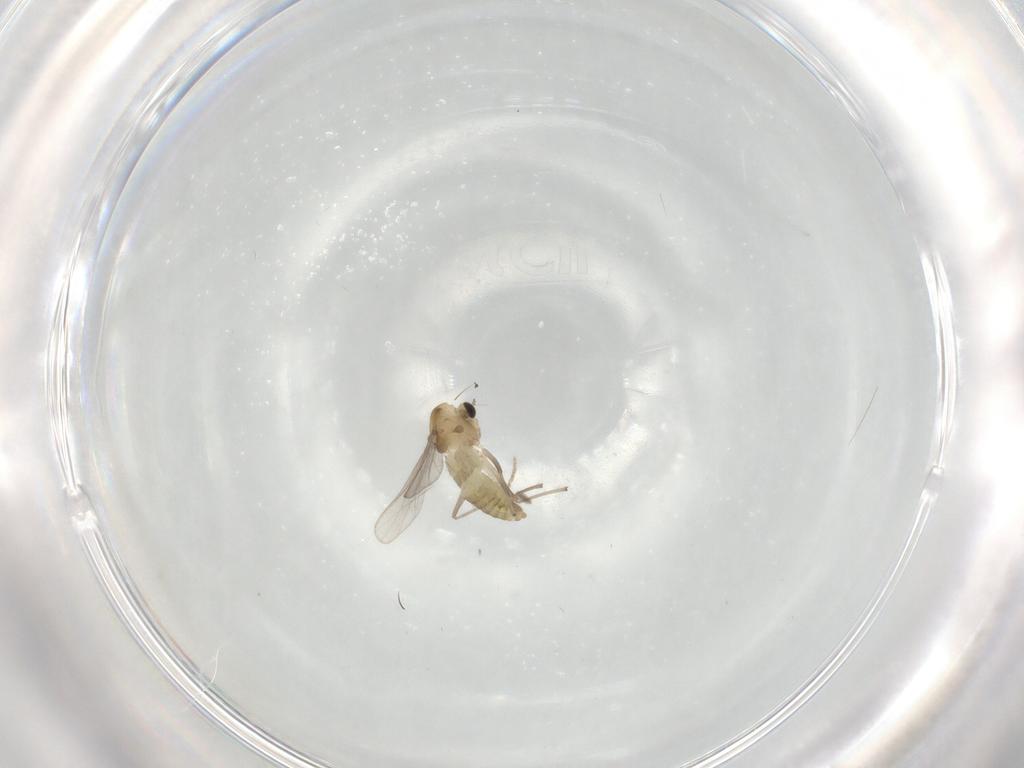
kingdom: Animalia
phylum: Arthropoda
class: Insecta
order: Diptera
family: Chironomidae
